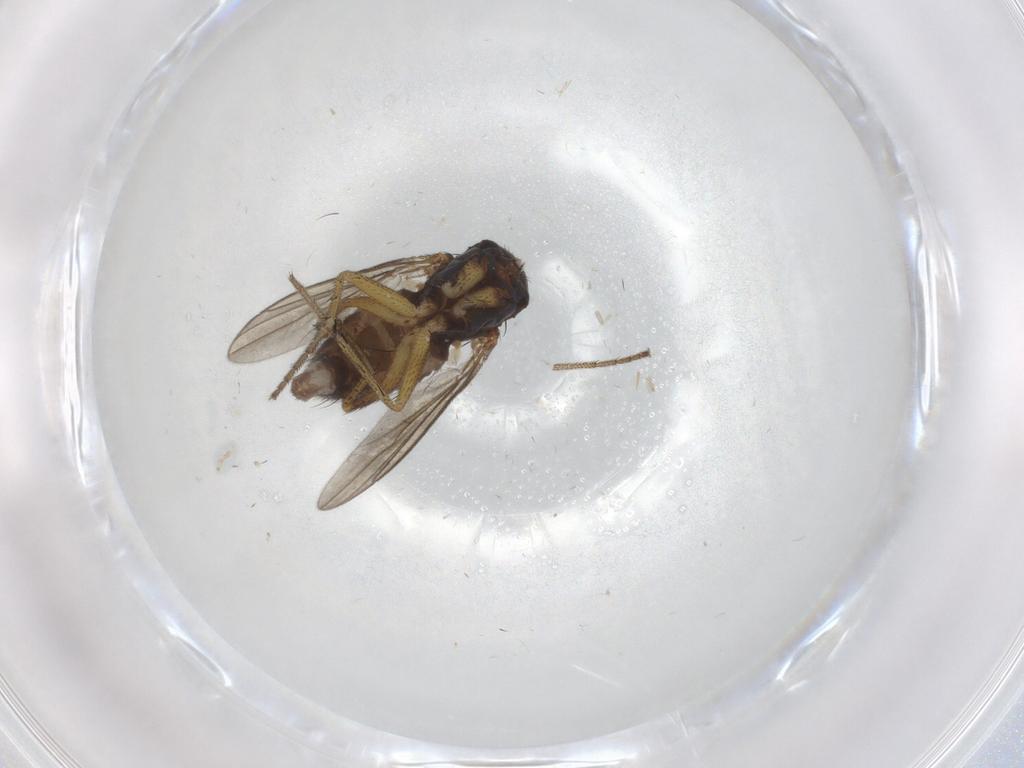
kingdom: Animalia
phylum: Arthropoda
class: Insecta
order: Diptera
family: Dolichopodidae
